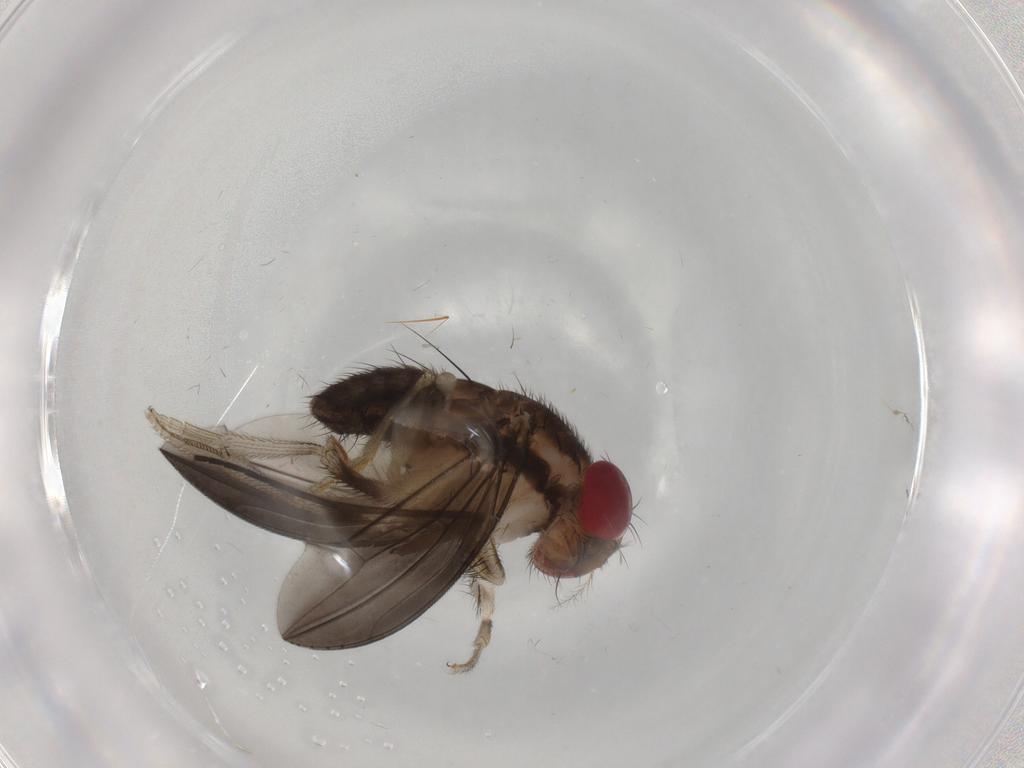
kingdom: Animalia
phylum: Arthropoda
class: Insecta
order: Diptera
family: Drosophilidae
